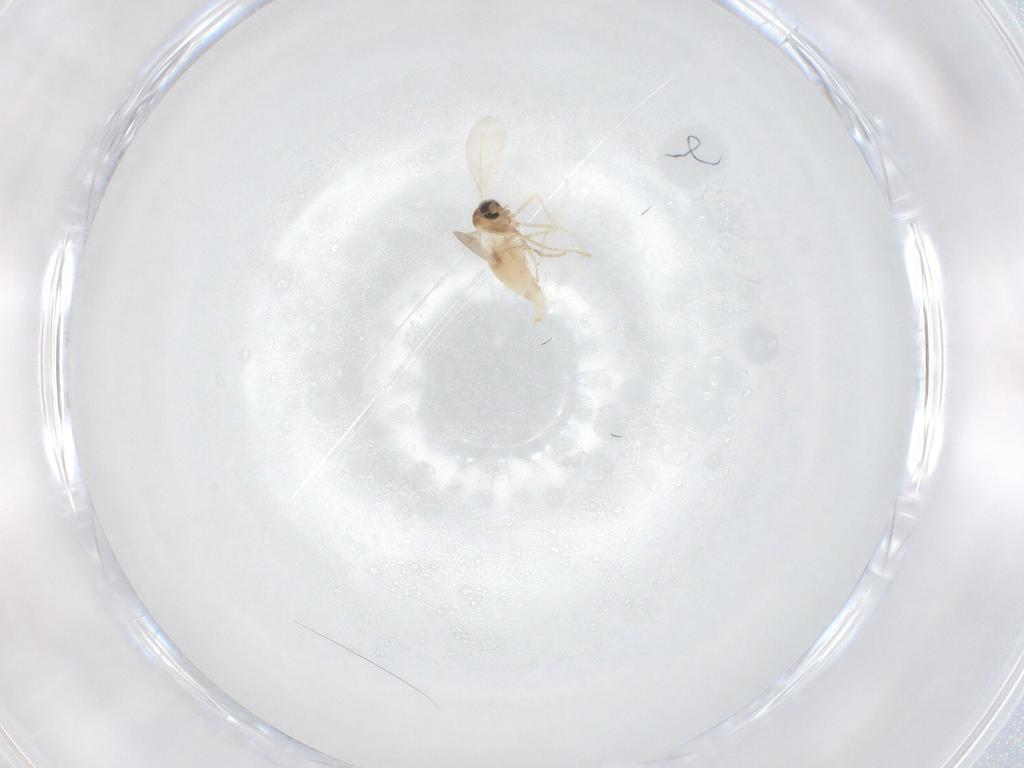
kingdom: Animalia
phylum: Arthropoda
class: Insecta
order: Diptera
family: Cecidomyiidae
